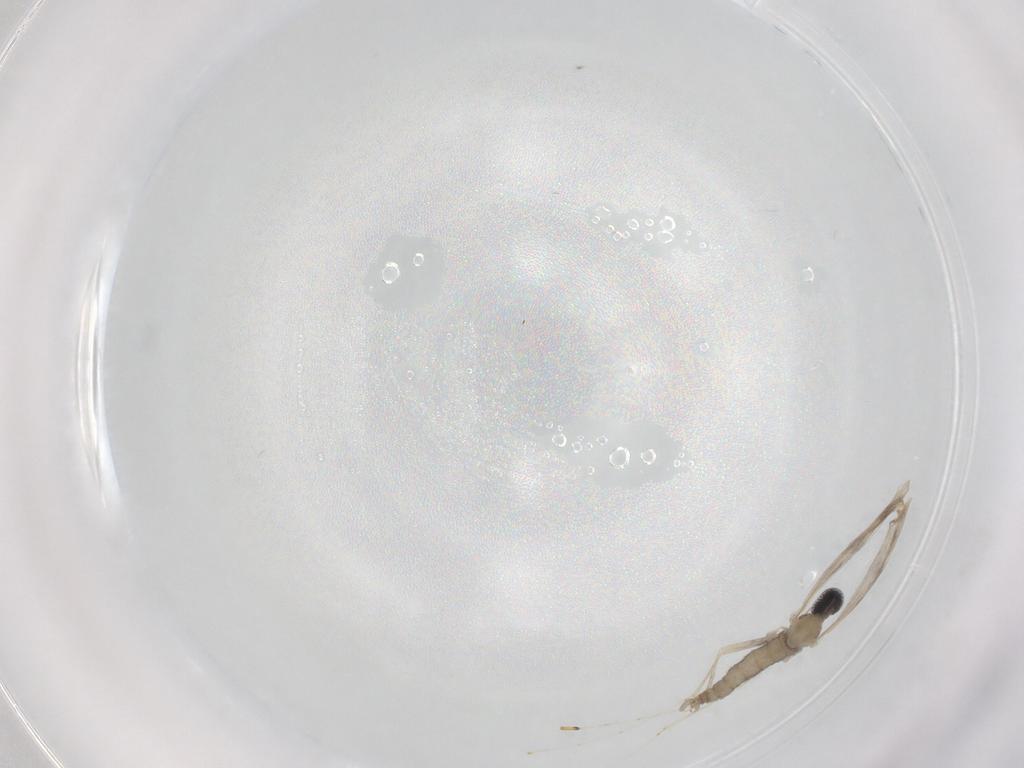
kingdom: Animalia
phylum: Arthropoda
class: Insecta
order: Diptera
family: Cecidomyiidae
